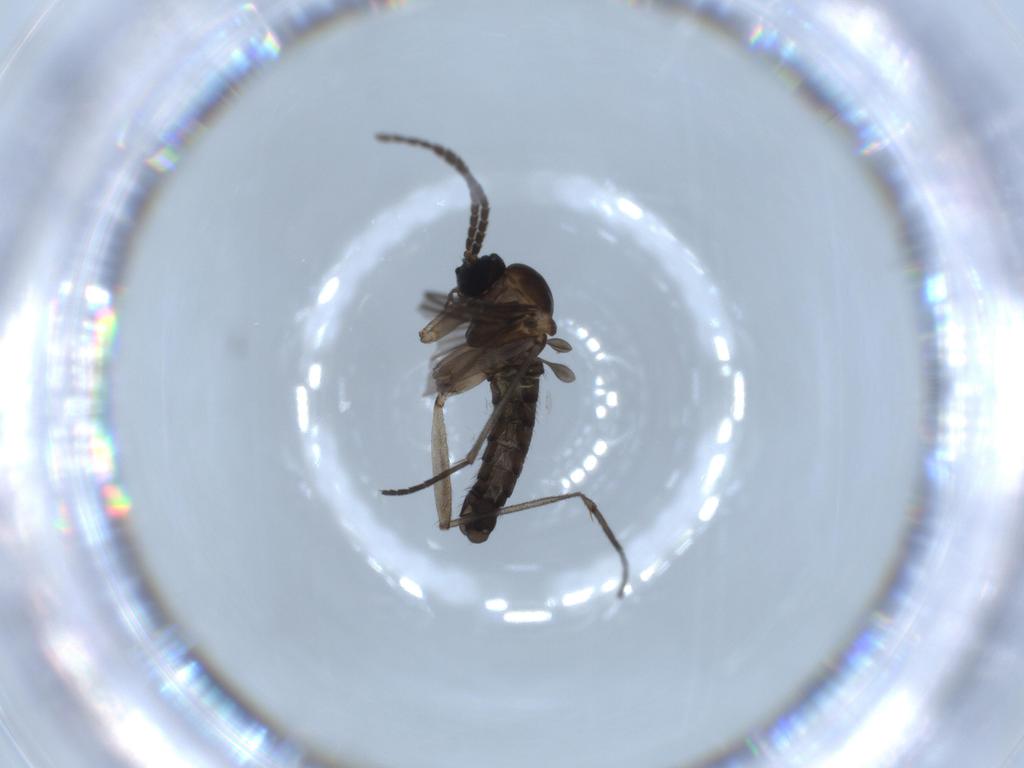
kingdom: Animalia
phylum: Arthropoda
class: Insecta
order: Diptera
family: Sciaridae
